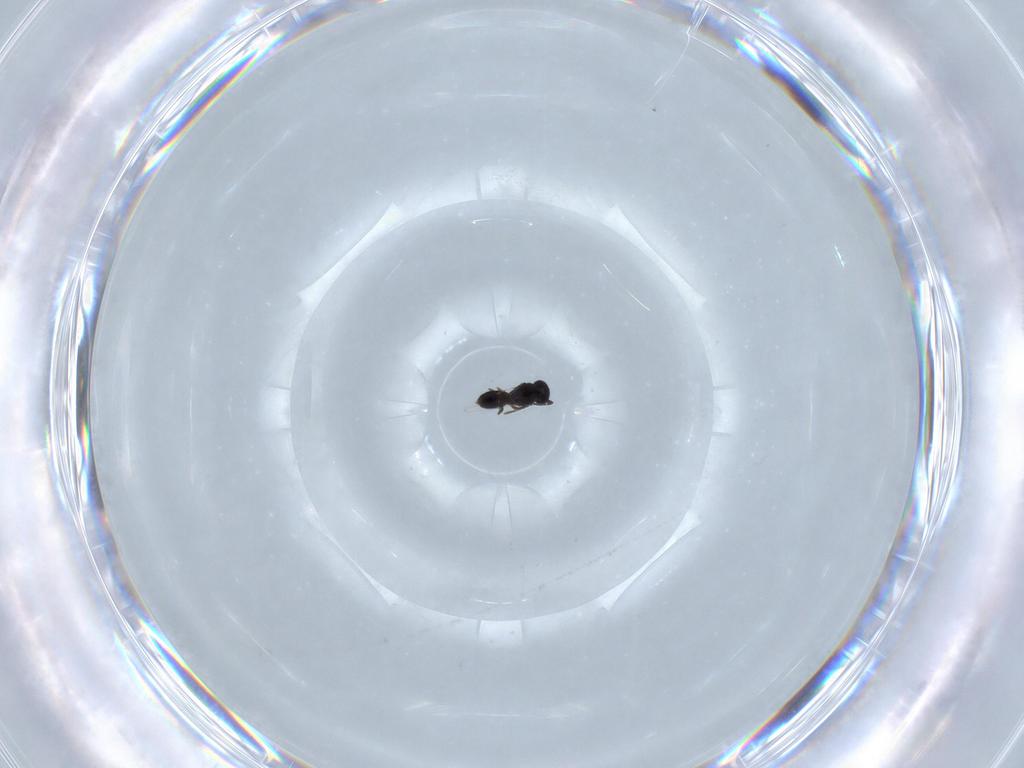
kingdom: Animalia
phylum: Arthropoda
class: Insecta
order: Hymenoptera
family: Scelionidae
